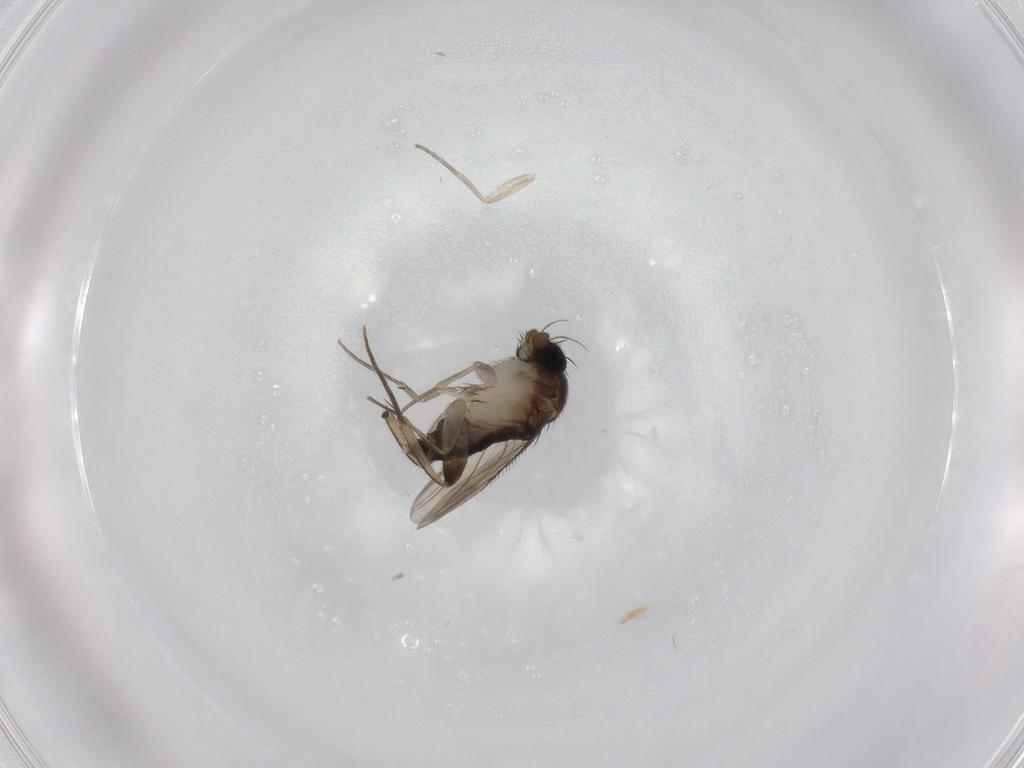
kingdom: Animalia
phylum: Arthropoda
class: Insecta
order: Diptera
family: Phoridae
